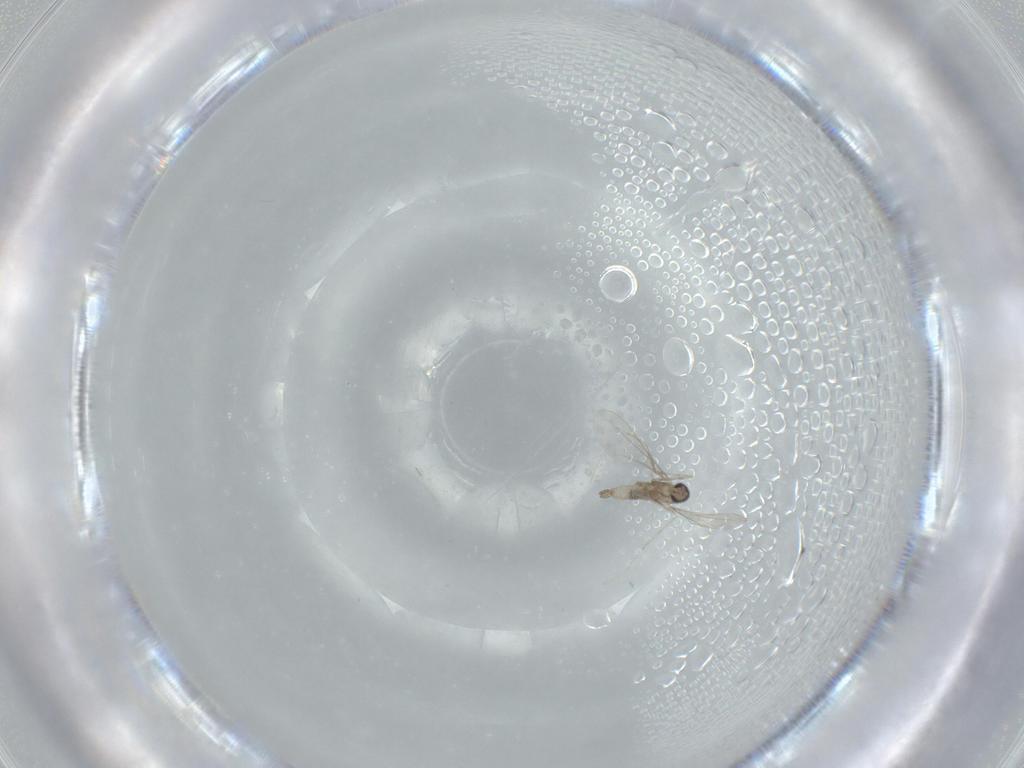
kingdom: Animalia
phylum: Arthropoda
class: Insecta
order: Diptera
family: Cecidomyiidae
